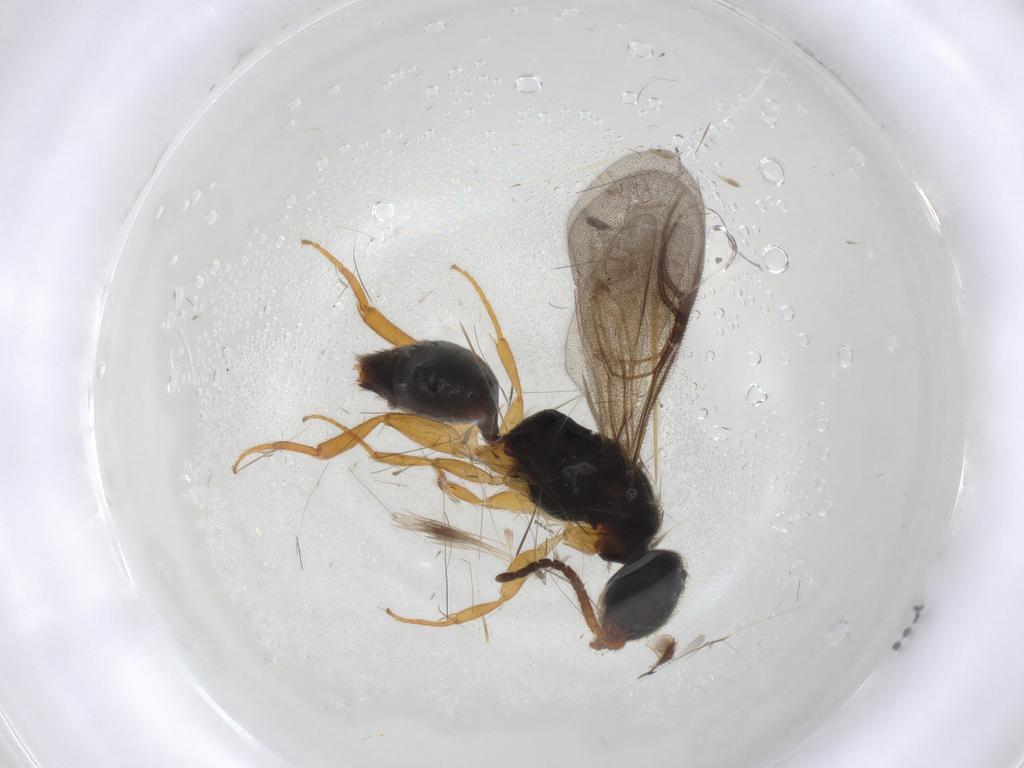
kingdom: Animalia
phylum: Arthropoda
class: Insecta
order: Hymenoptera
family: Bethylidae
